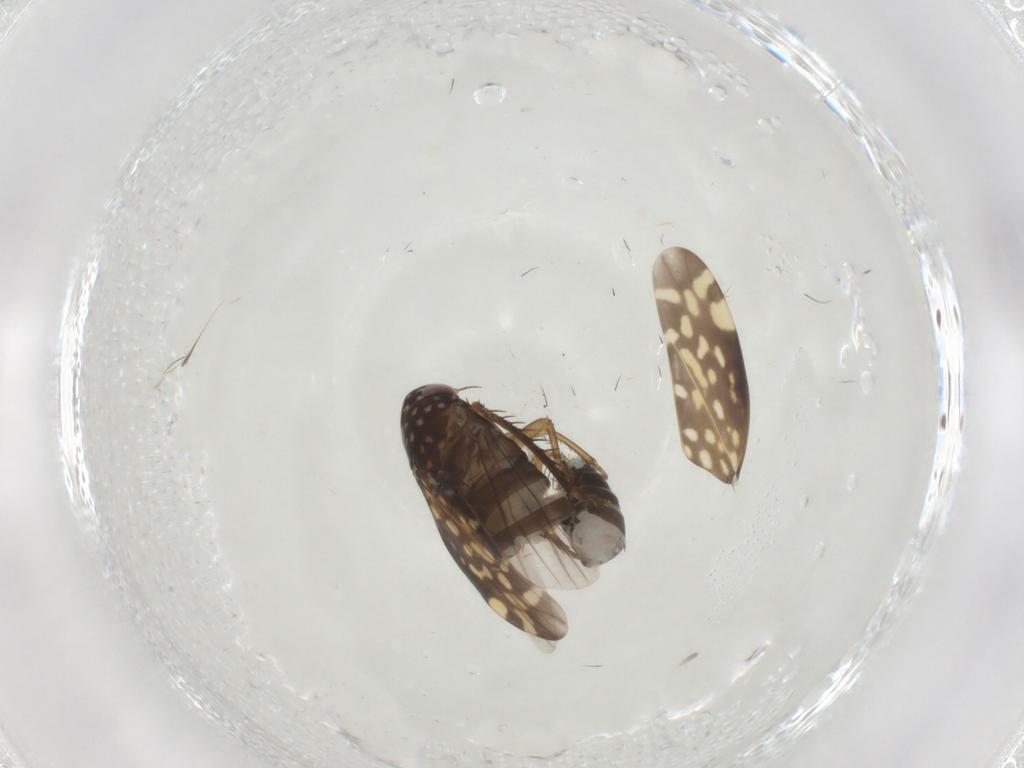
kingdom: Animalia
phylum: Arthropoda
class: Insecta
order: Hemiptera
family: Cicadellidae
